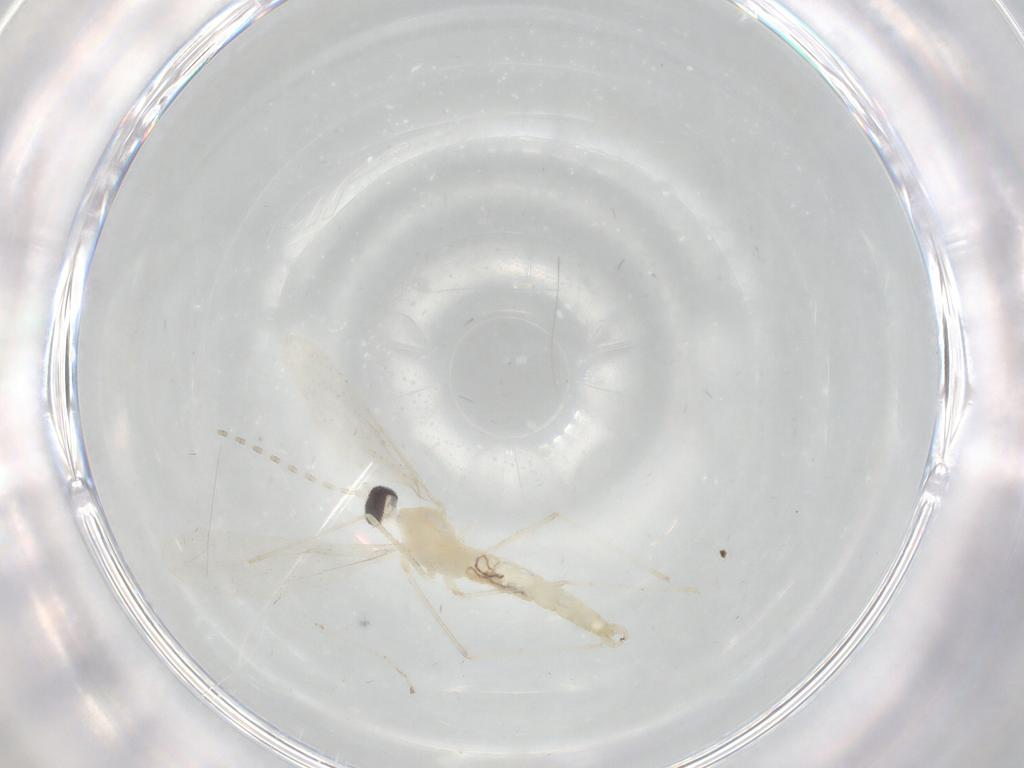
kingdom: Animalia
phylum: Arthropoda
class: Insecta
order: Diptera
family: Cecidomyiidae
